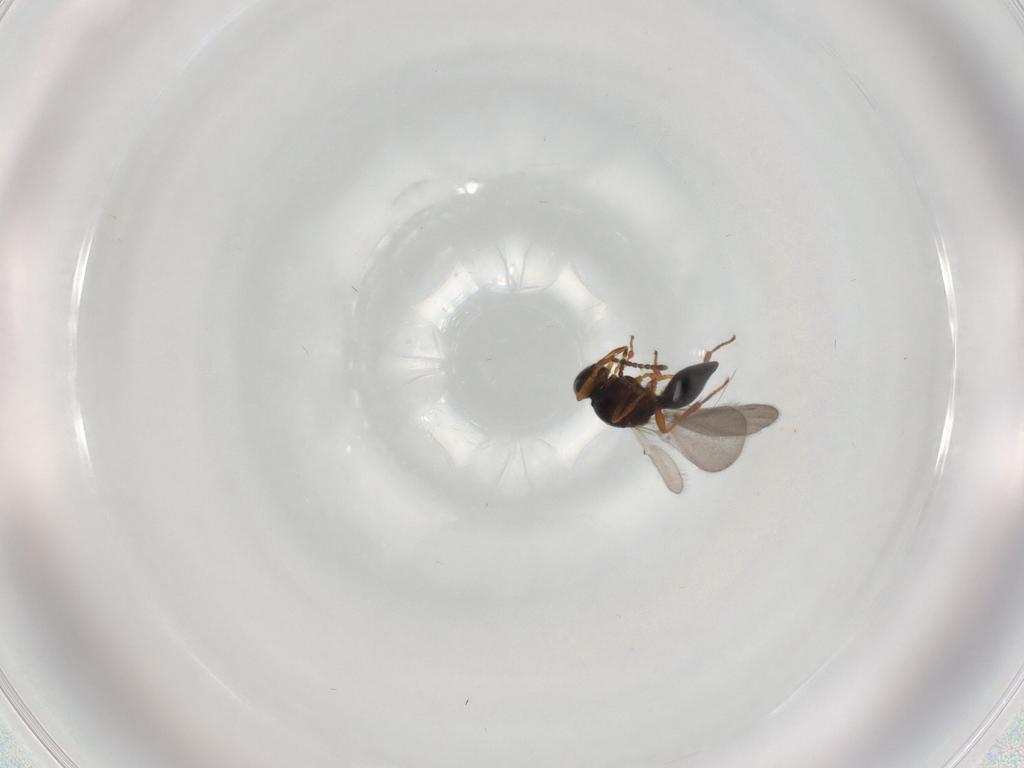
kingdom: Animalia
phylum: Arthropoda
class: Insecta
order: Hymenoptera
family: Platygastridae
